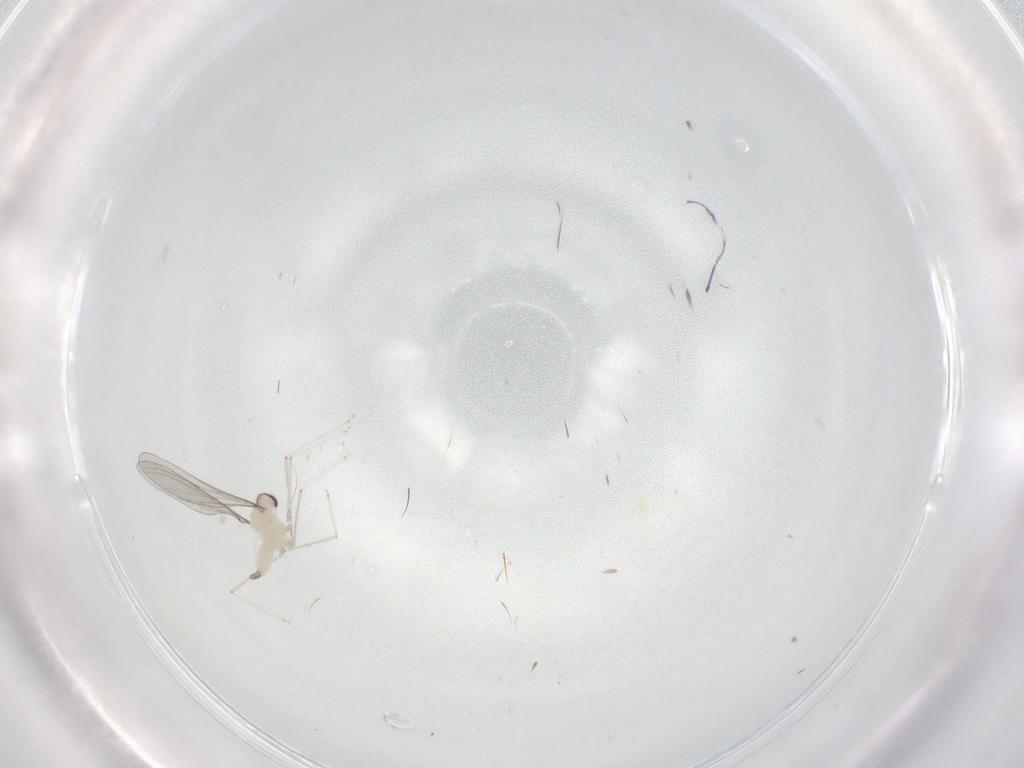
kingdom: Animalia
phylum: Arthropoda
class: Insecta
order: Diptera
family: Cecidomyiidae
